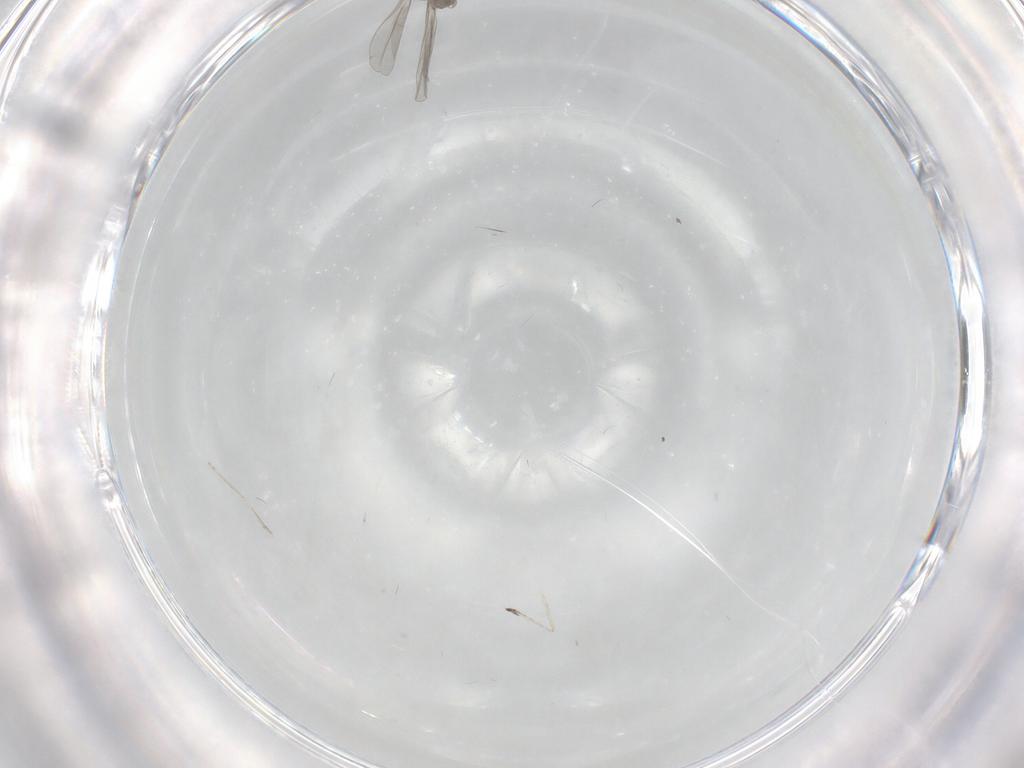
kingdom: Animalia
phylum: Arthropoda
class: Insecta
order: Diptera
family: Cecidomyiidae
